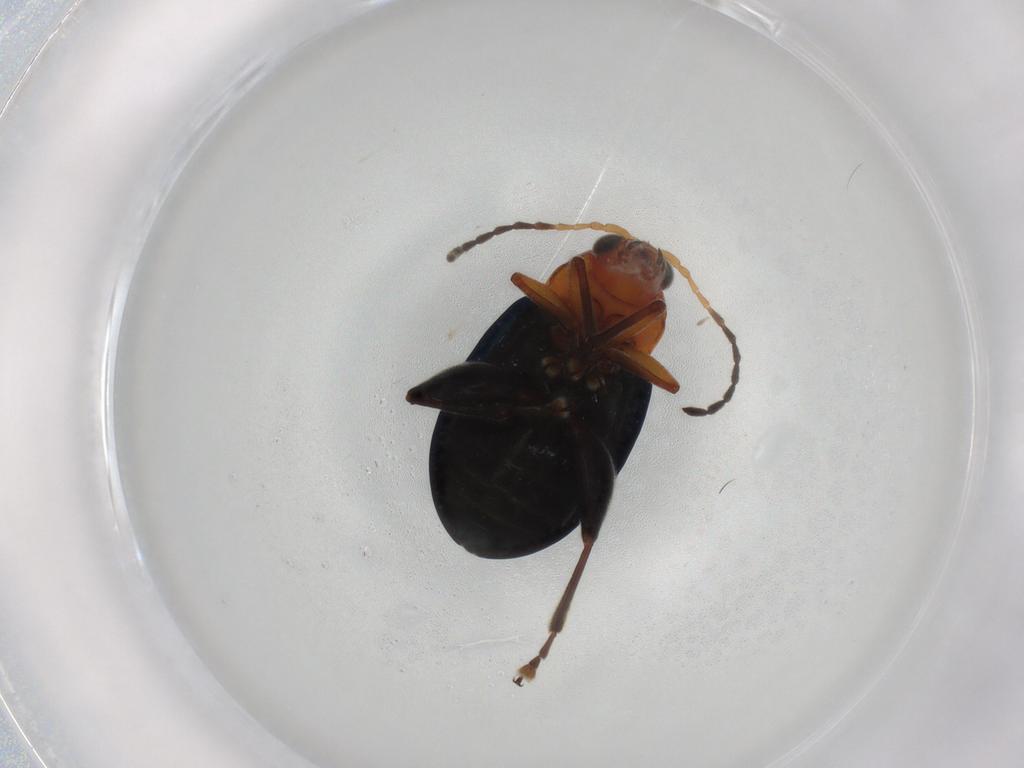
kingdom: Animalia
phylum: Arthropoda
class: Insecta
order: Coleoptera
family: Chrysomelidae
